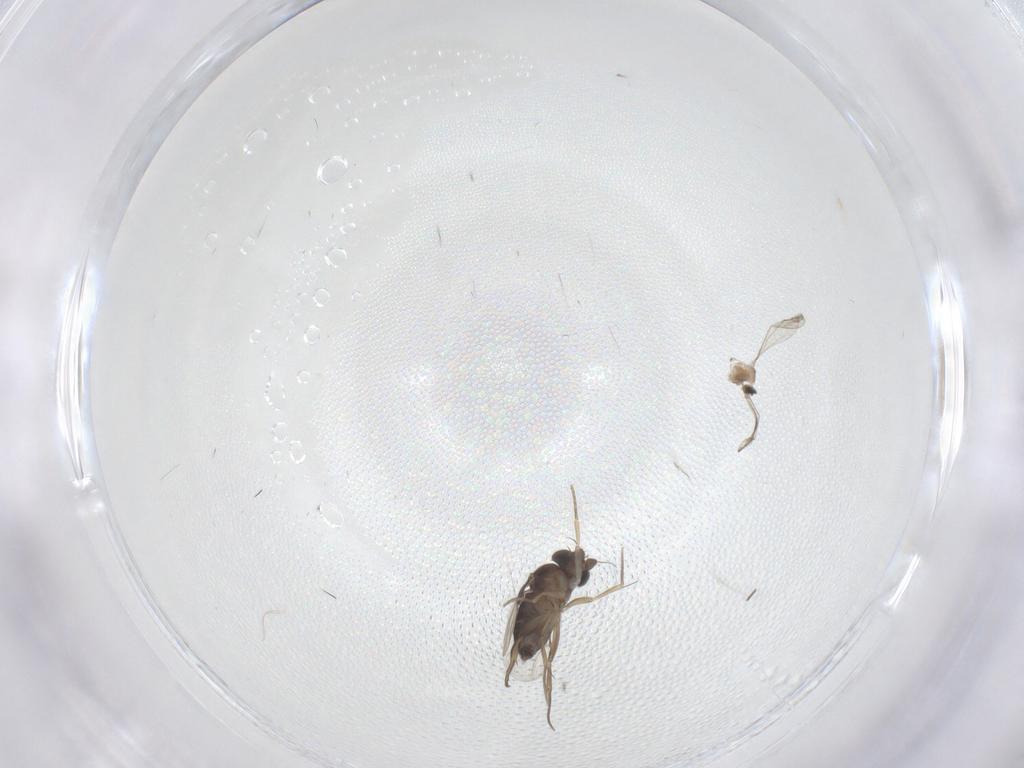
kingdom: Animalia
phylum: Arthropoda
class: Insecta
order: Diptera
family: Cecidomyiidae
